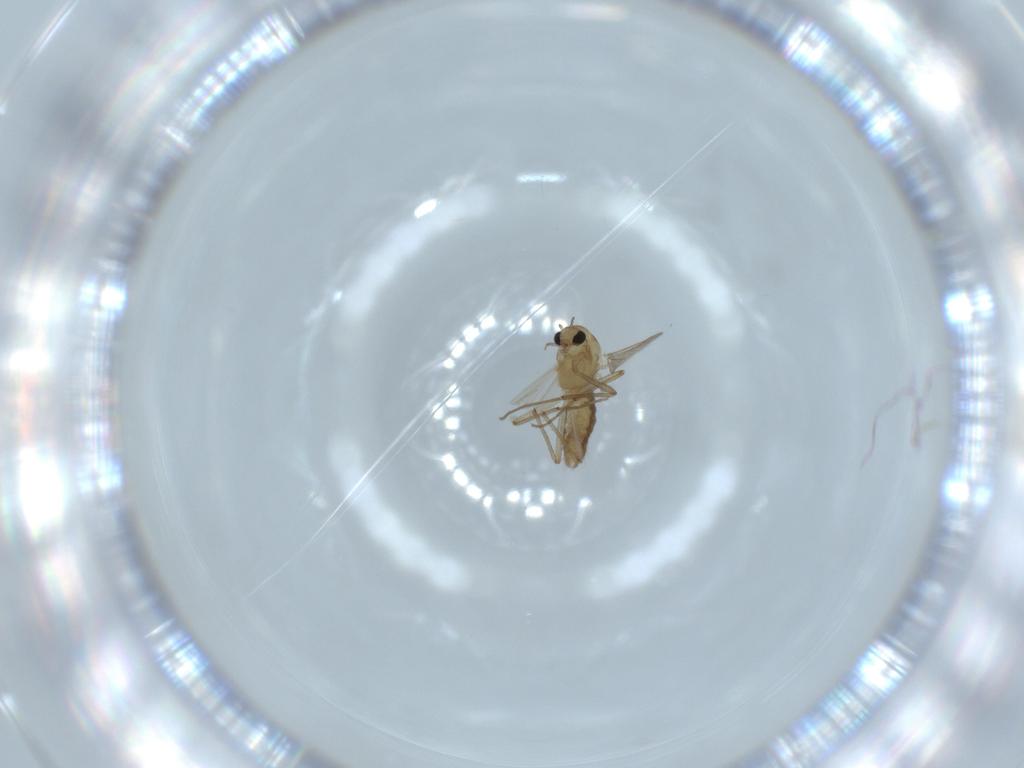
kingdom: Animalia
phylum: Arthropoda
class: Insecta
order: Diptera
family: Chironomidae
